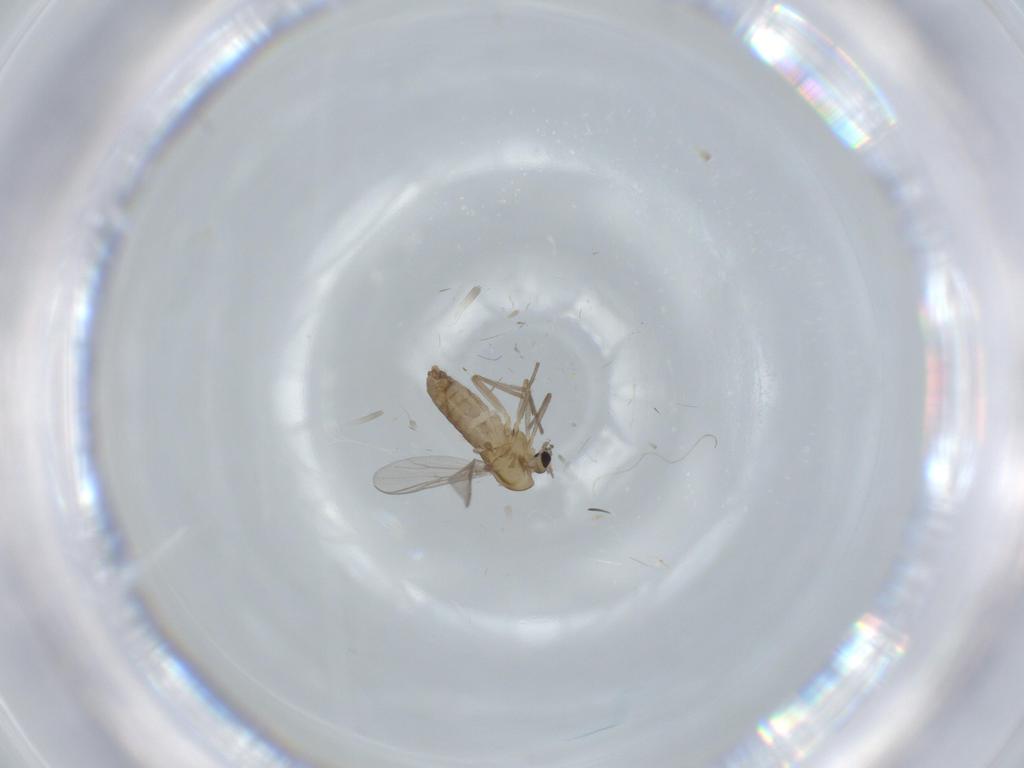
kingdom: Animalia
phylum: Arthropoda
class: Insecta
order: Diptera
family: Chironomidae
